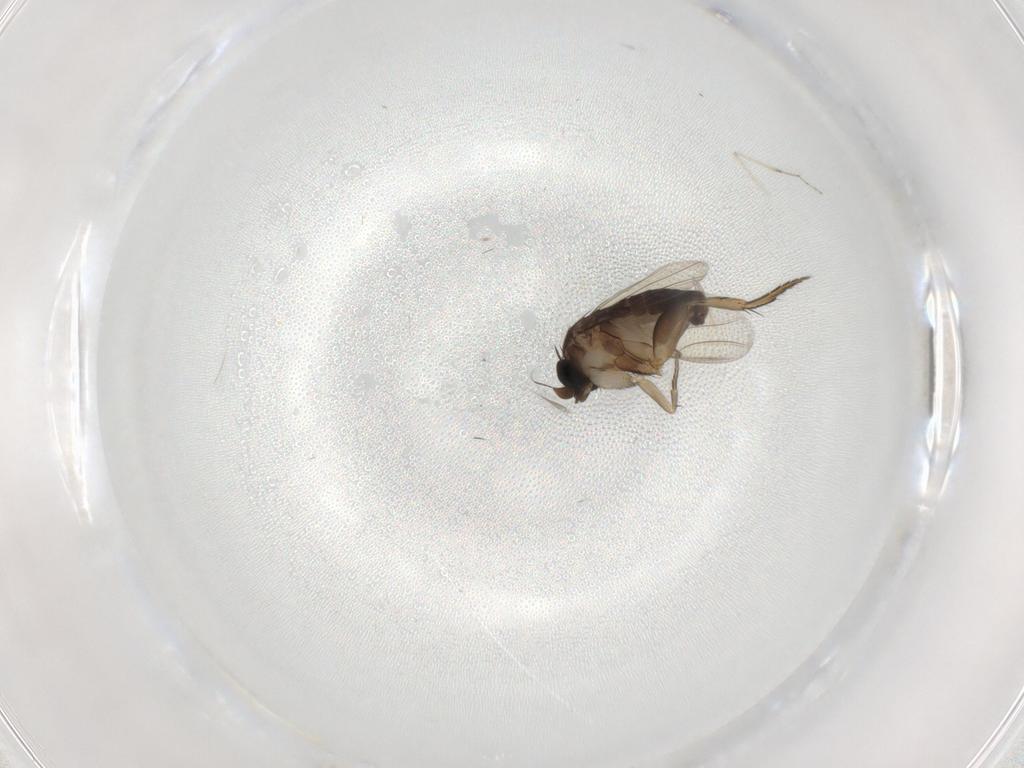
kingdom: Animalia
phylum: Arthropoda
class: Insecta
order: Diptera
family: Phoridae
